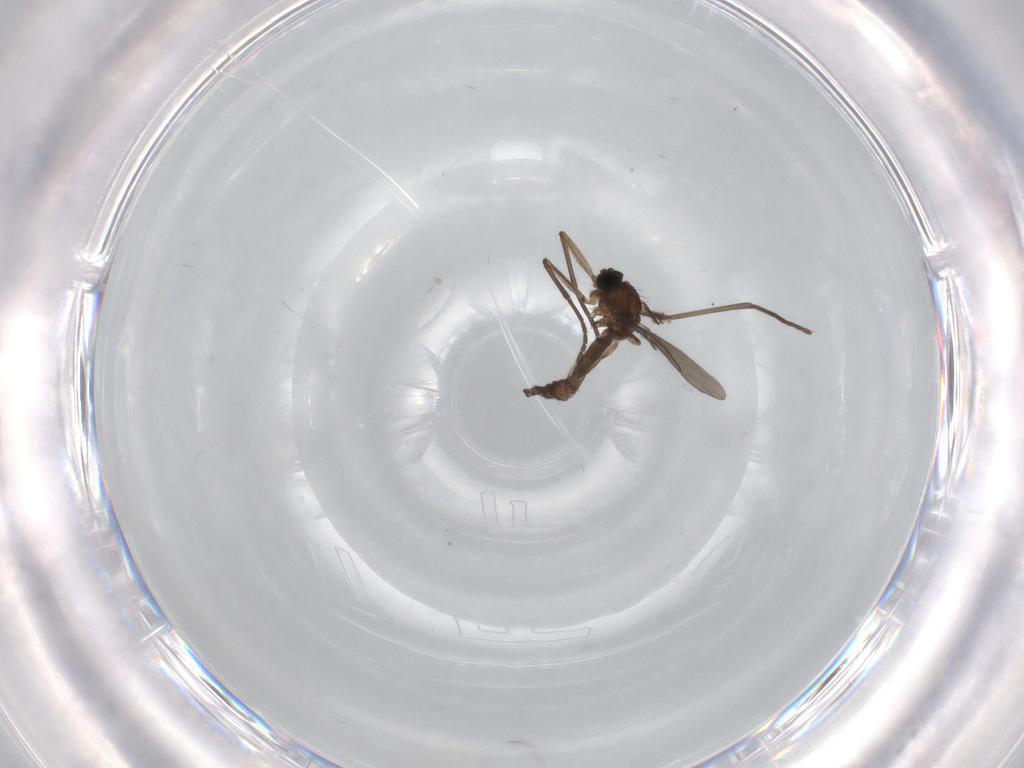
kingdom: Animalia
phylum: Arthropoda
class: Insecta
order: Diptera
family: Limoniidae
